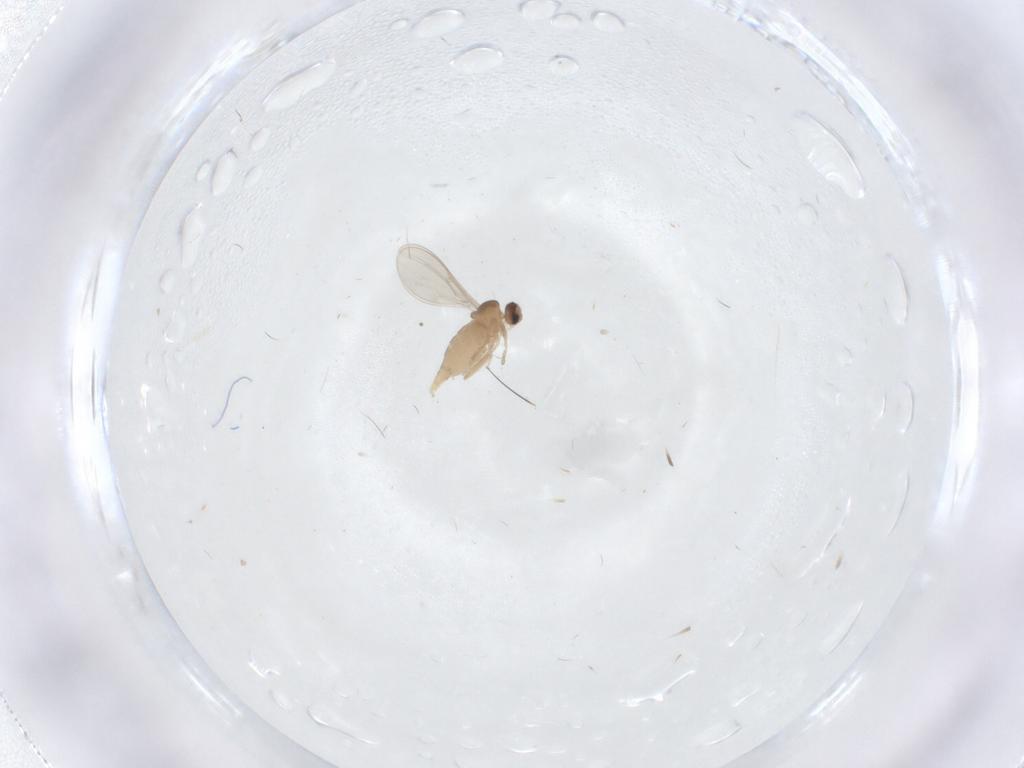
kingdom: Animalia
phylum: Arthropoda
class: Insecta
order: Diptera
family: Cecidomyiidae
